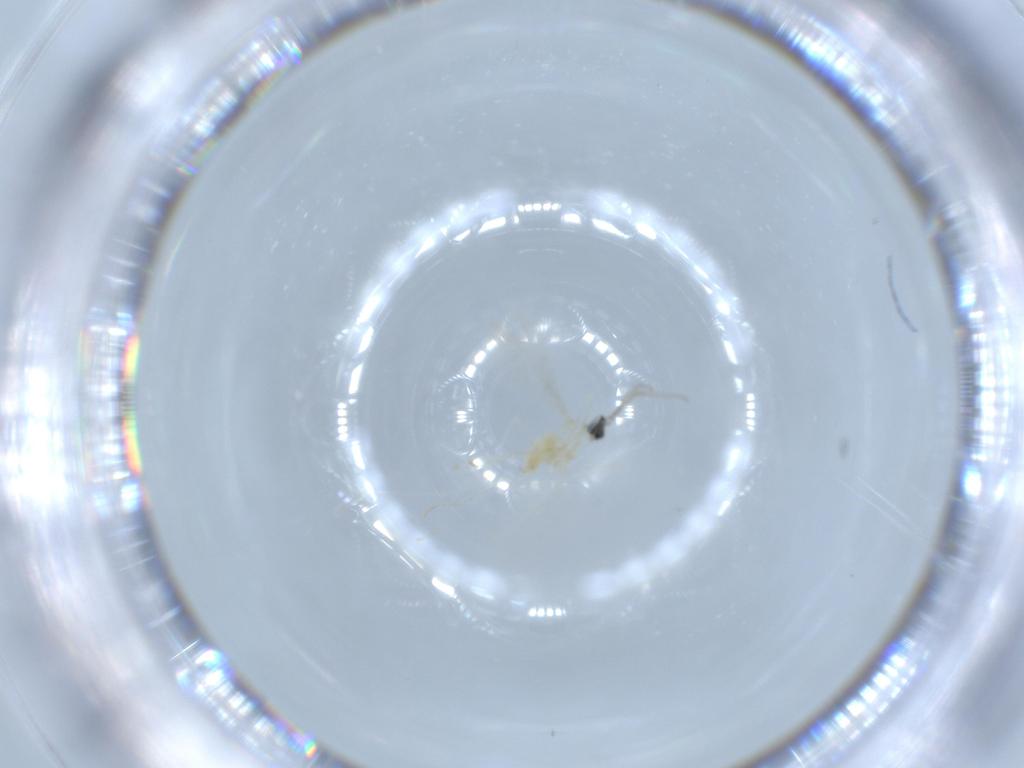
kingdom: Animalia
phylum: Arthropoda
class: Insecta
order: Diptera
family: Cecidomyiidae
